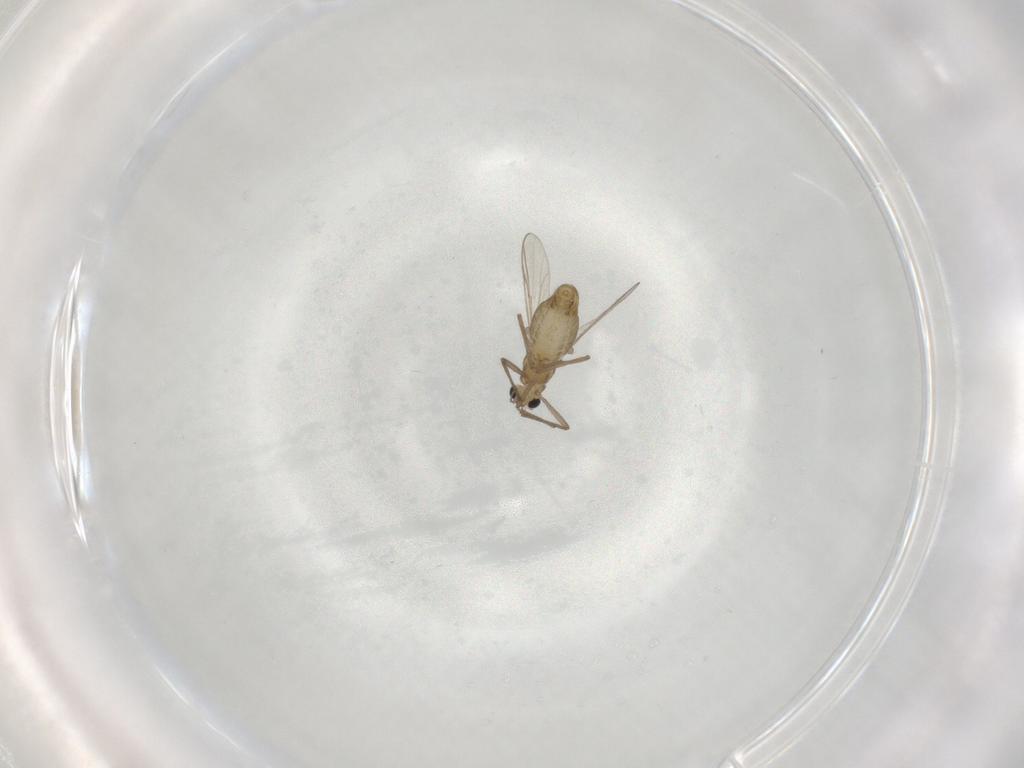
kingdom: Animalia
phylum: Arthropoda
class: Insecta
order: Diptera
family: Chironomidae
